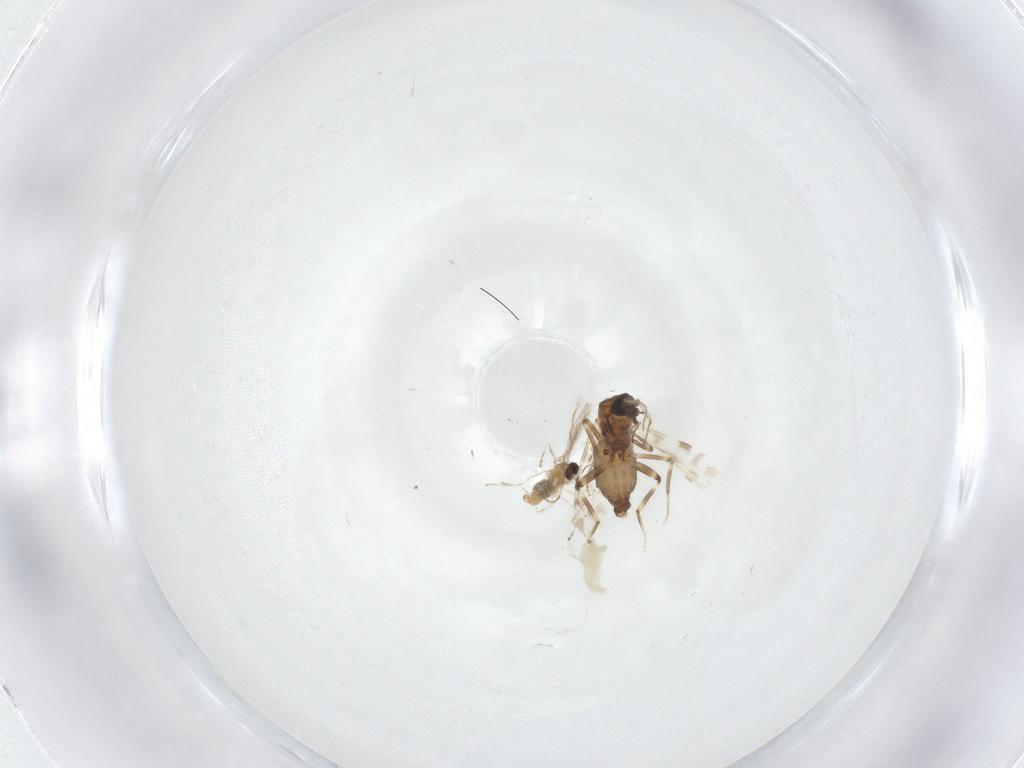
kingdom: Animalia
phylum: Arthropoda
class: Insecta
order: Diptera
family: Cecidomyiidae
